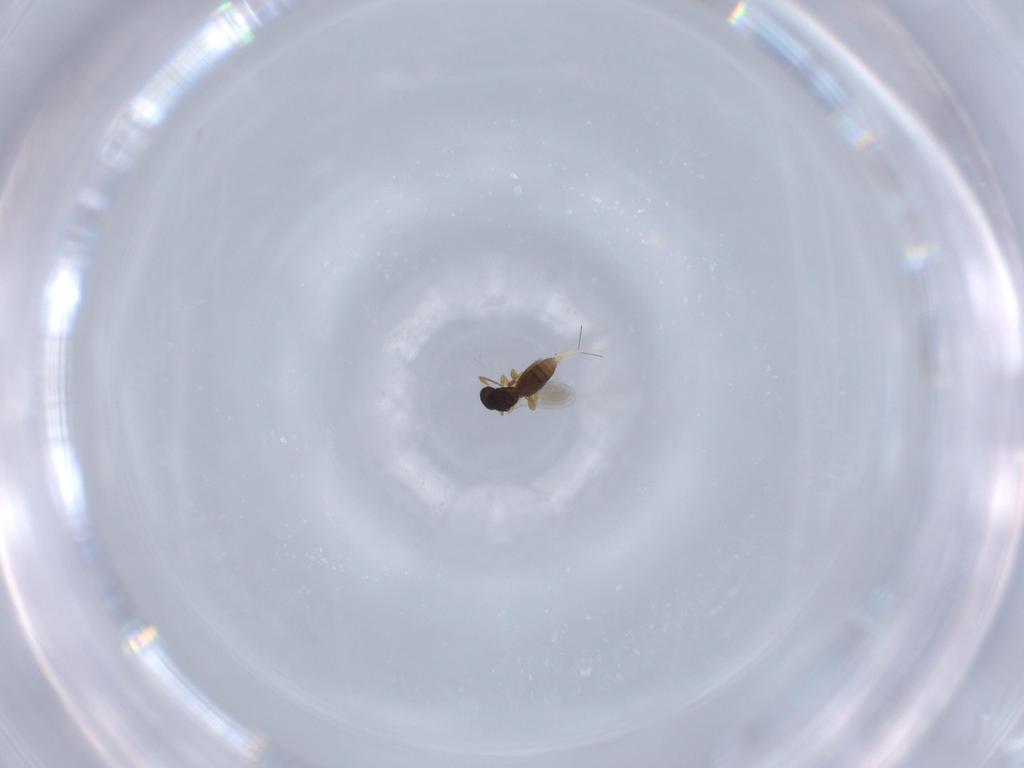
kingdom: Animalia
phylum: Arthropoda
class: Insecta
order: Hymenoptera
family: Platygastridae
